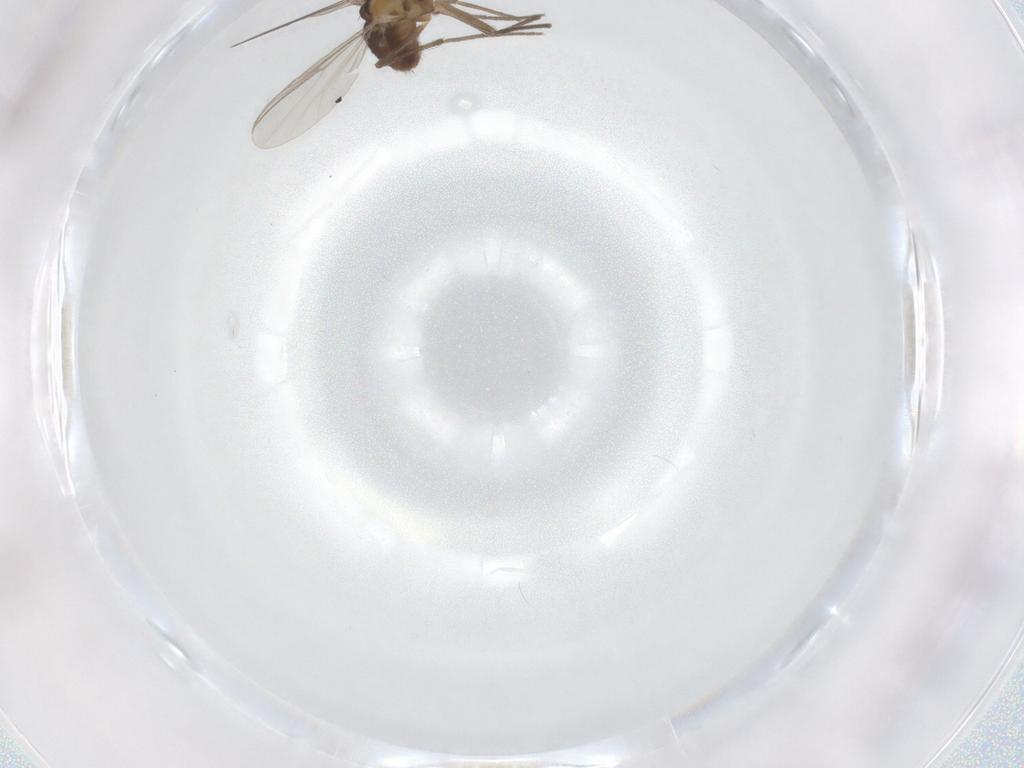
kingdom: Animalia
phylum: Arthropoda
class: Insecta
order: Diptera
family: Chironomidae
